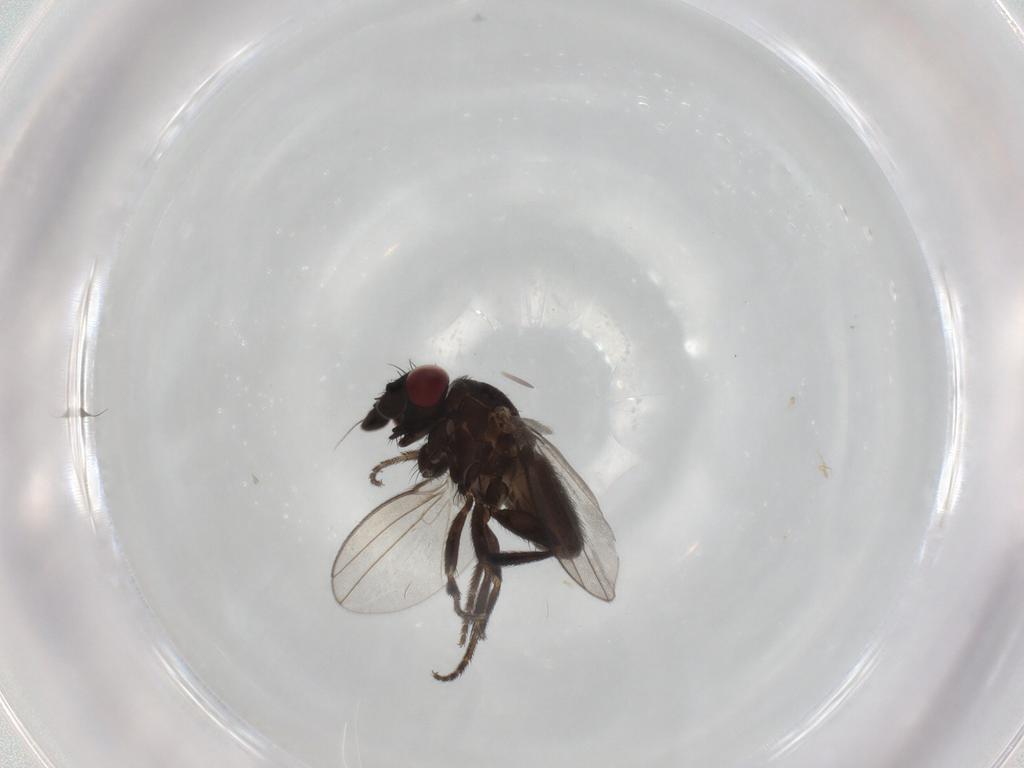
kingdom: Animalia
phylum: Arthropoda
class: Insecta
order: Diptera
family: Milichiidae
